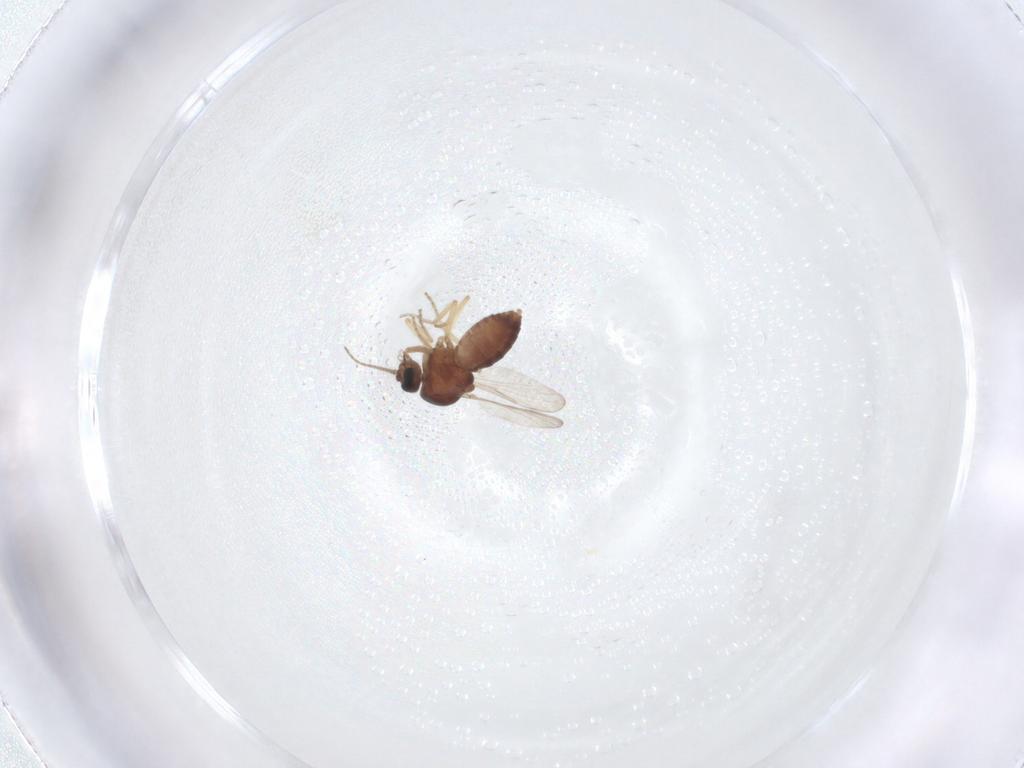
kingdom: Animalia
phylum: Arthropoda
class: Insecta
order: Diptera
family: Ceratopogonidae
